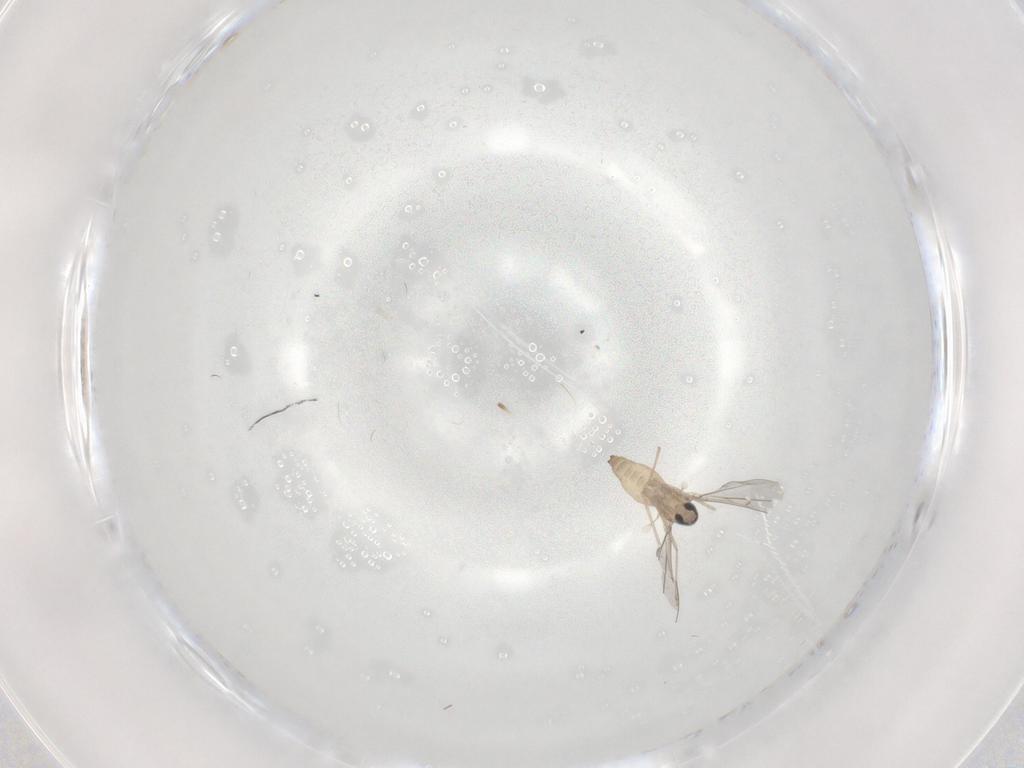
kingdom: Animalia
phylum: Arthropoda
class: Insecta
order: Diptera
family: Cecidomyiidae
